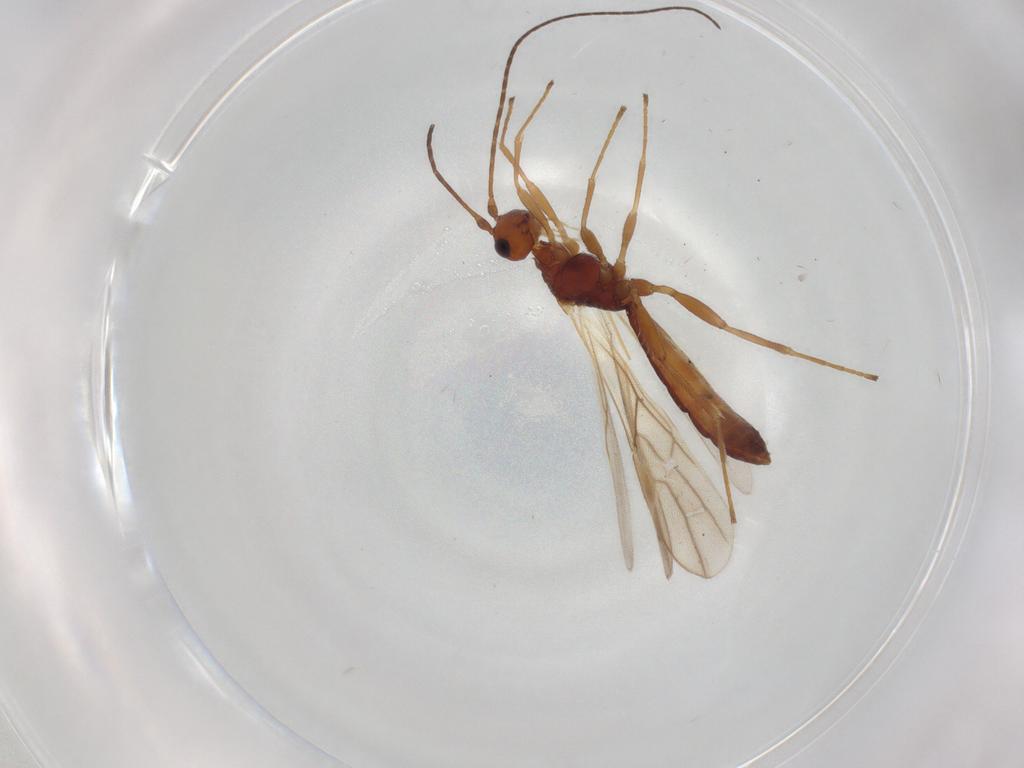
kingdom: Animalia
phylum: Arthropoda
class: Insecta
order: Hymenoptera
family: Braconidae
